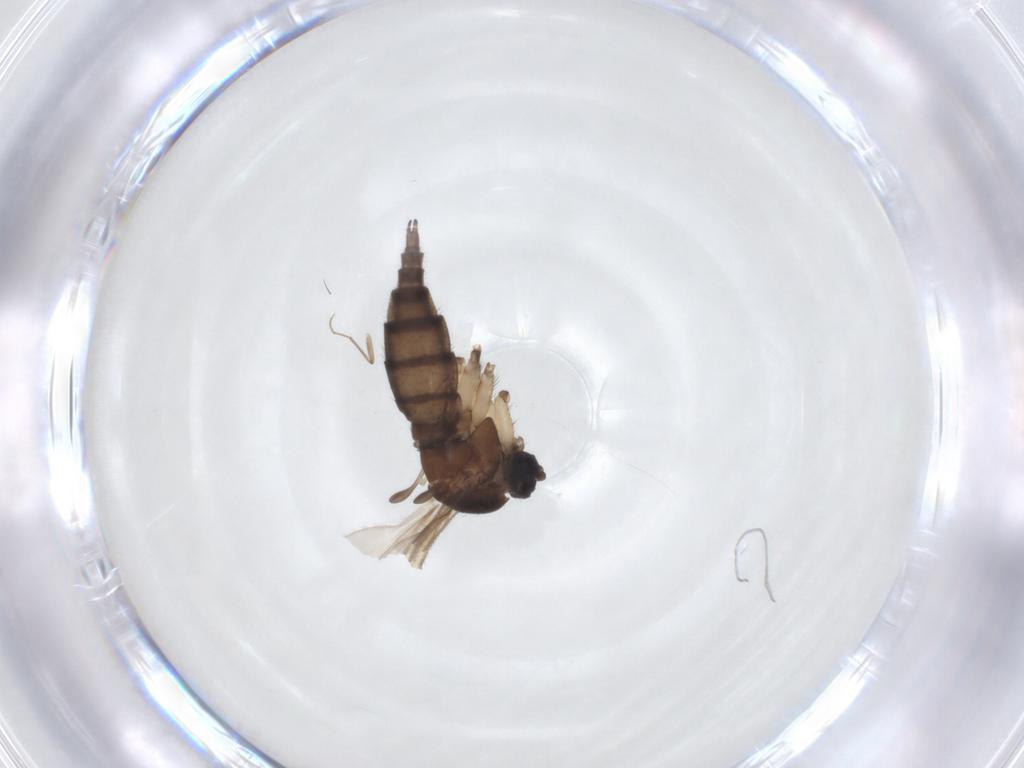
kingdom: Animalia
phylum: Arthropoda
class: Insecta
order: Diptera
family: Sciaridae
